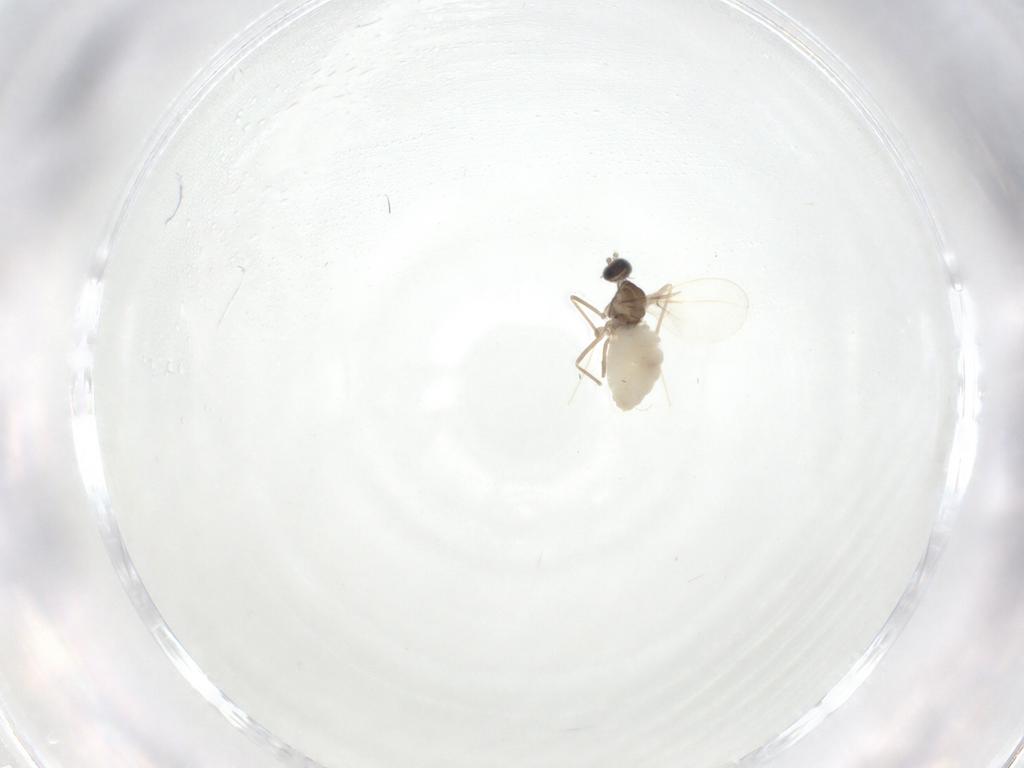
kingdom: Animalia
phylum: Arthropoda
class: Insecta
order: Diptera
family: Cecidomyiidae
